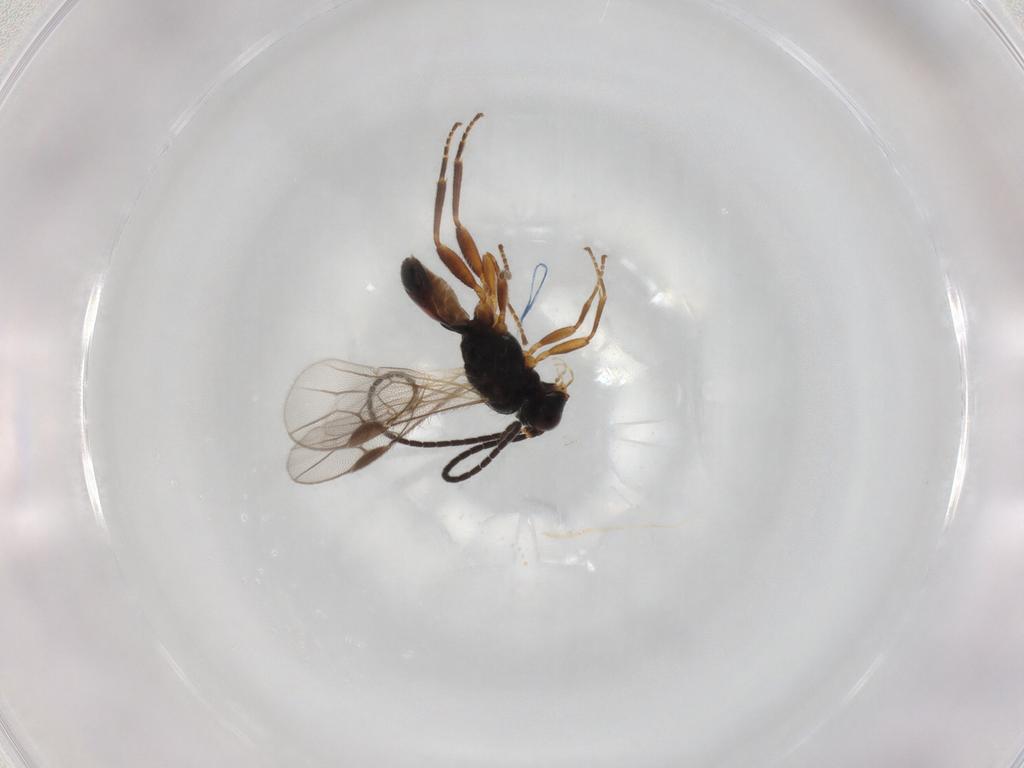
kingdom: Animalia
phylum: Arthropoda
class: Insecta
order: Hymenoptera
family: Braconidae
